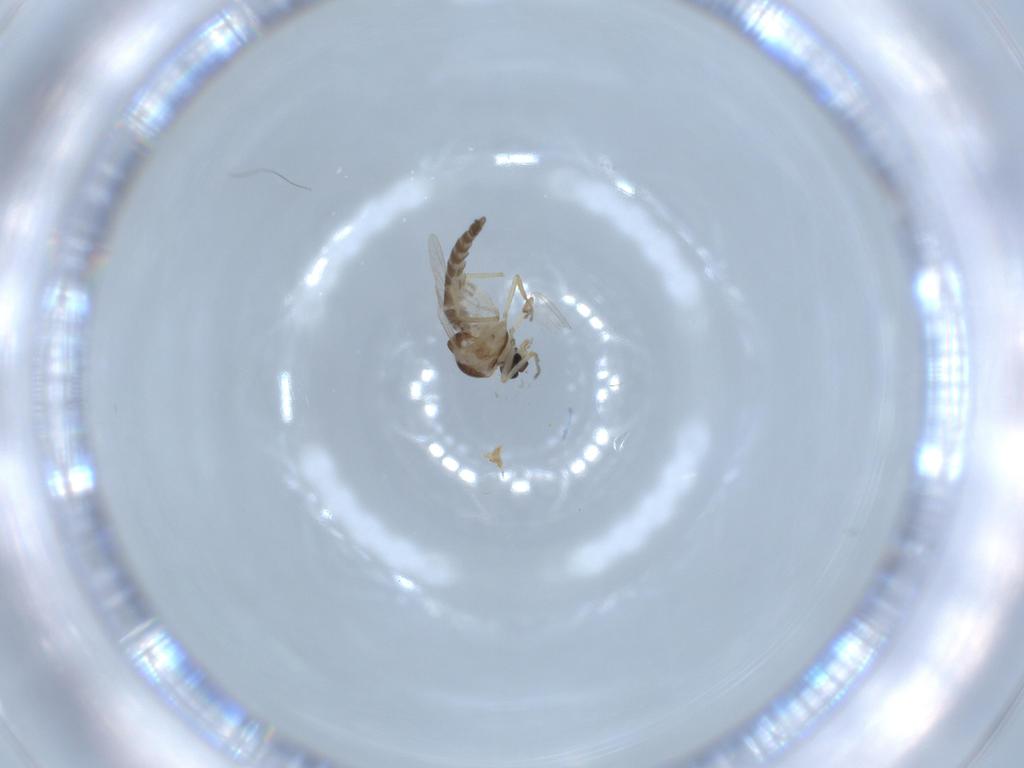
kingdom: Animalia
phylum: Arthropoda
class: Insecta
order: Diptera
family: Ceratopogonidae
